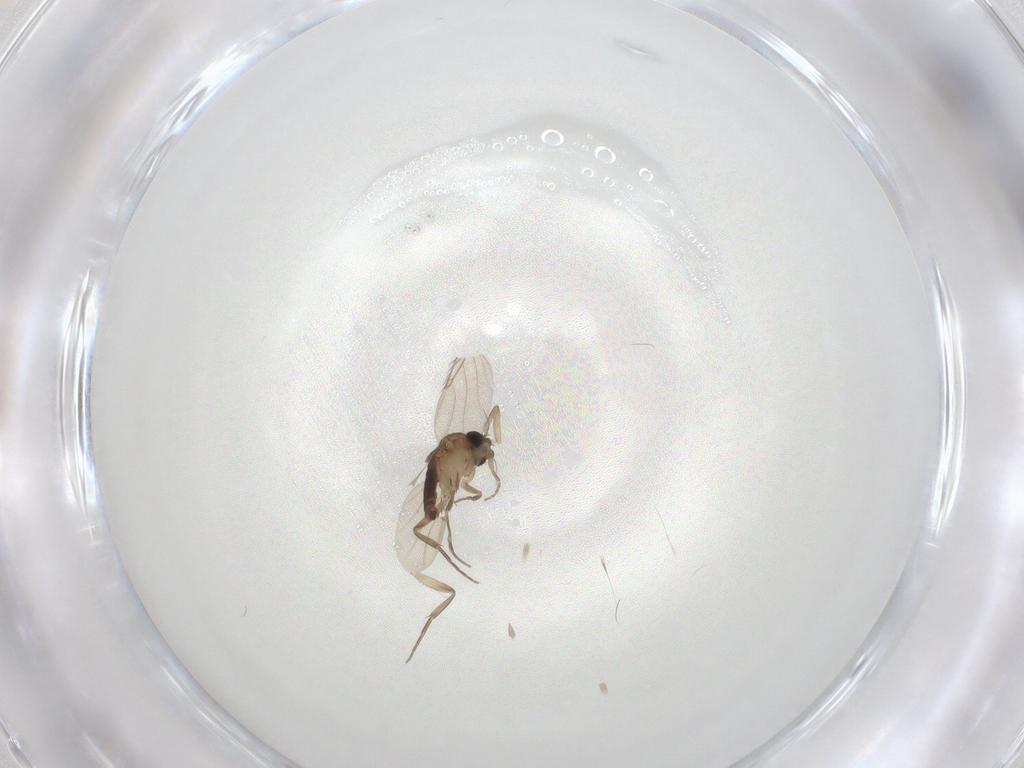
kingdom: Animalia
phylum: Arthropoda
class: Insecta
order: Diptera
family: Phoridae
